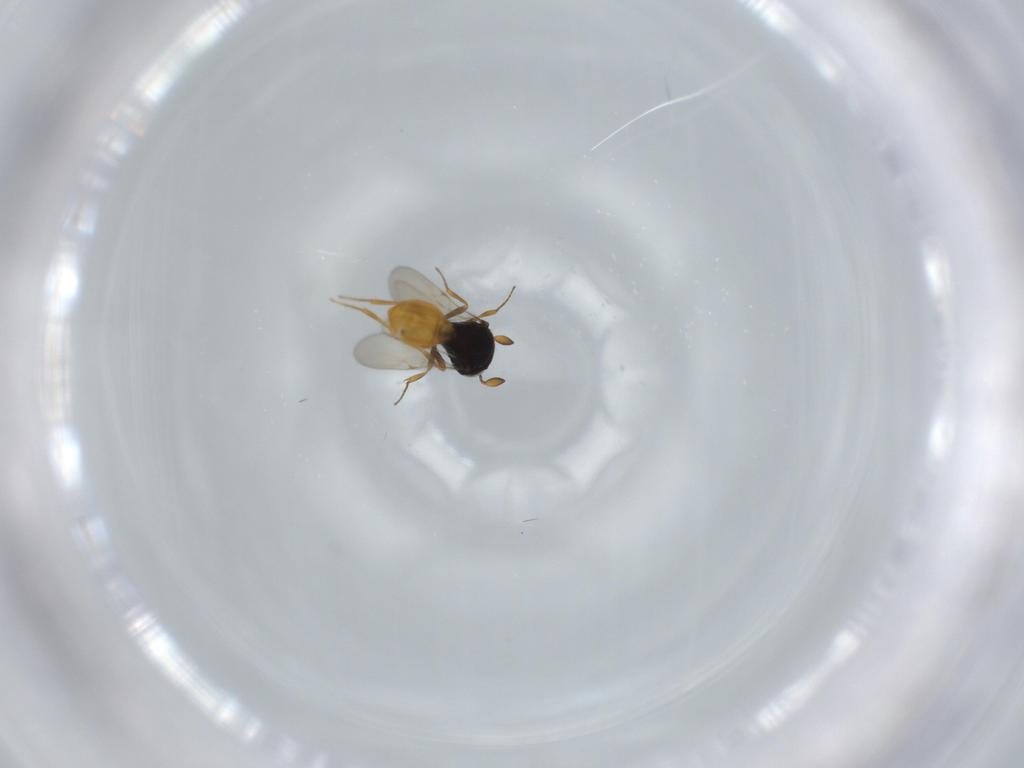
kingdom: Animalia
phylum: Arthropoda
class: Insecta
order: Hymenoptera
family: Scelionidae
